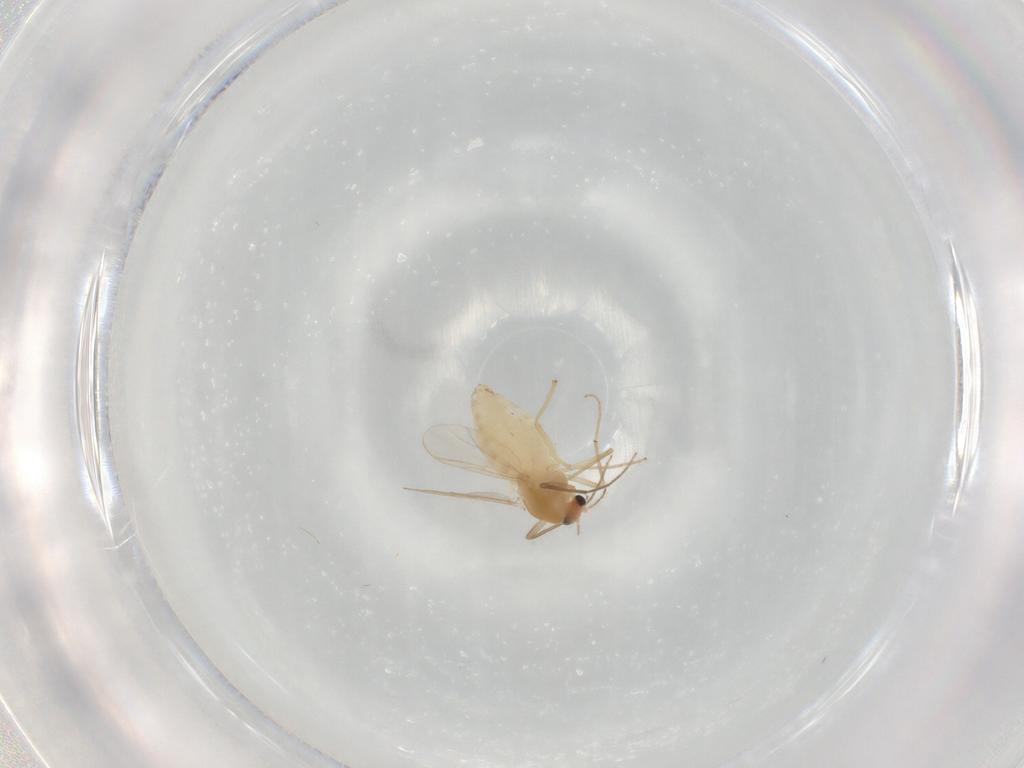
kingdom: Animalia
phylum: Arthropoda
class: Insecta
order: Diptera
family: Chironomidae
